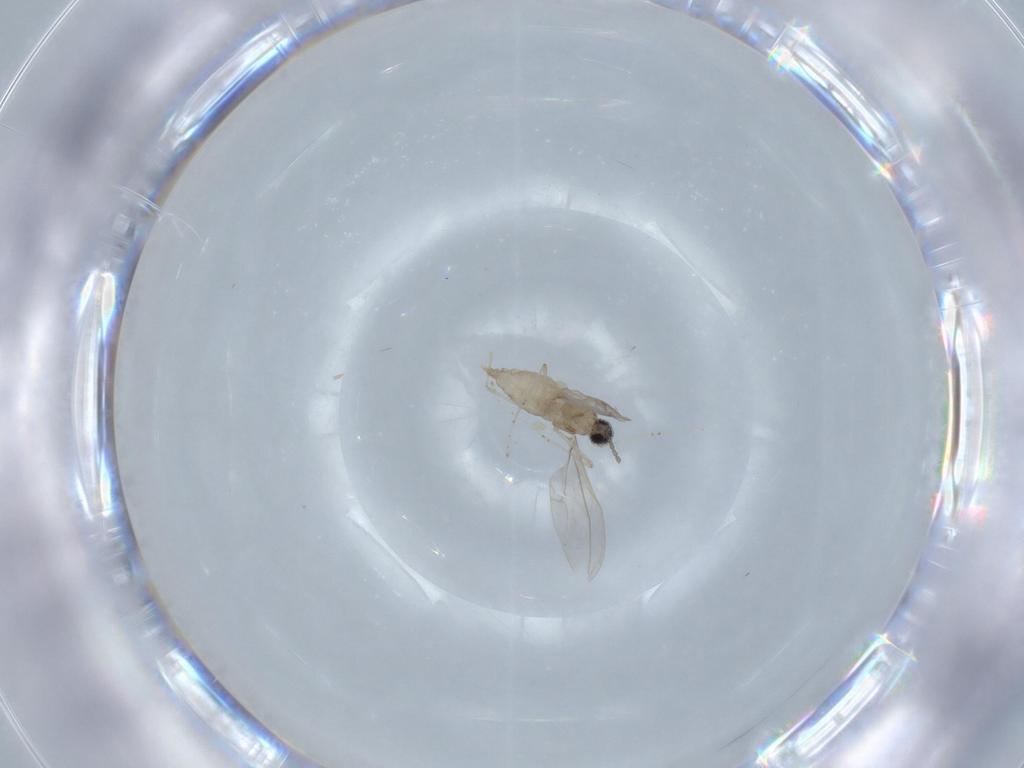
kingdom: Animalia
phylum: Arthropoda
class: Insecta
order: Diptera
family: Cecidomyiidae
